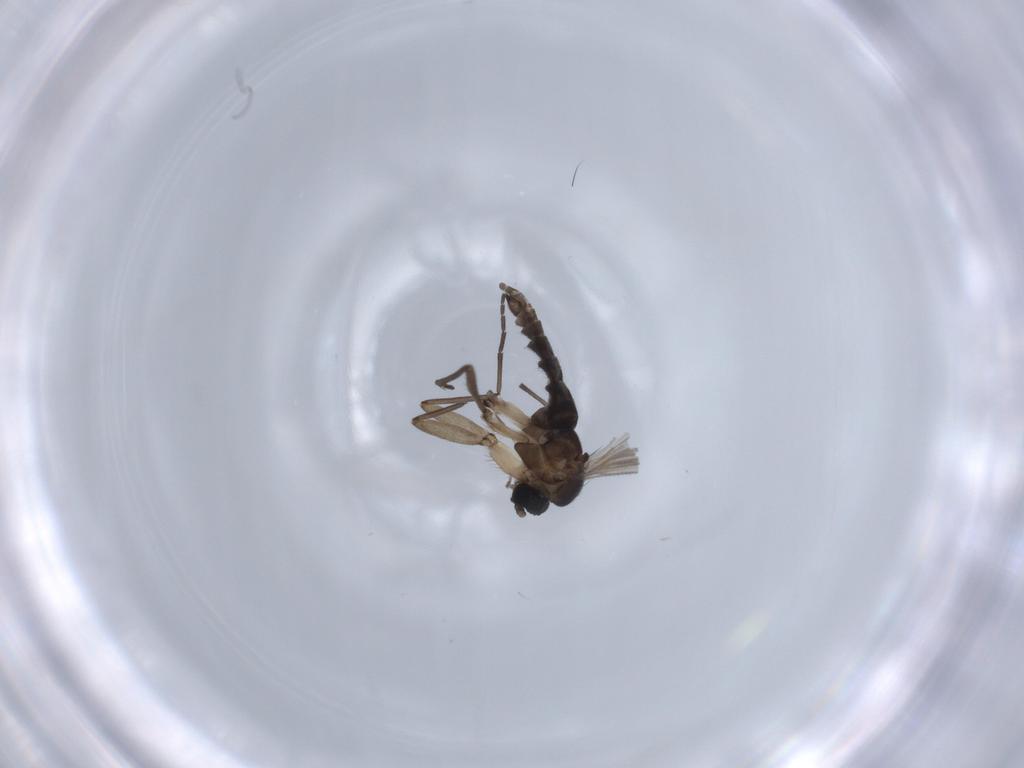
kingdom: Animalia
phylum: Arthropoda
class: Insecta
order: Diptera
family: Sciaridae
